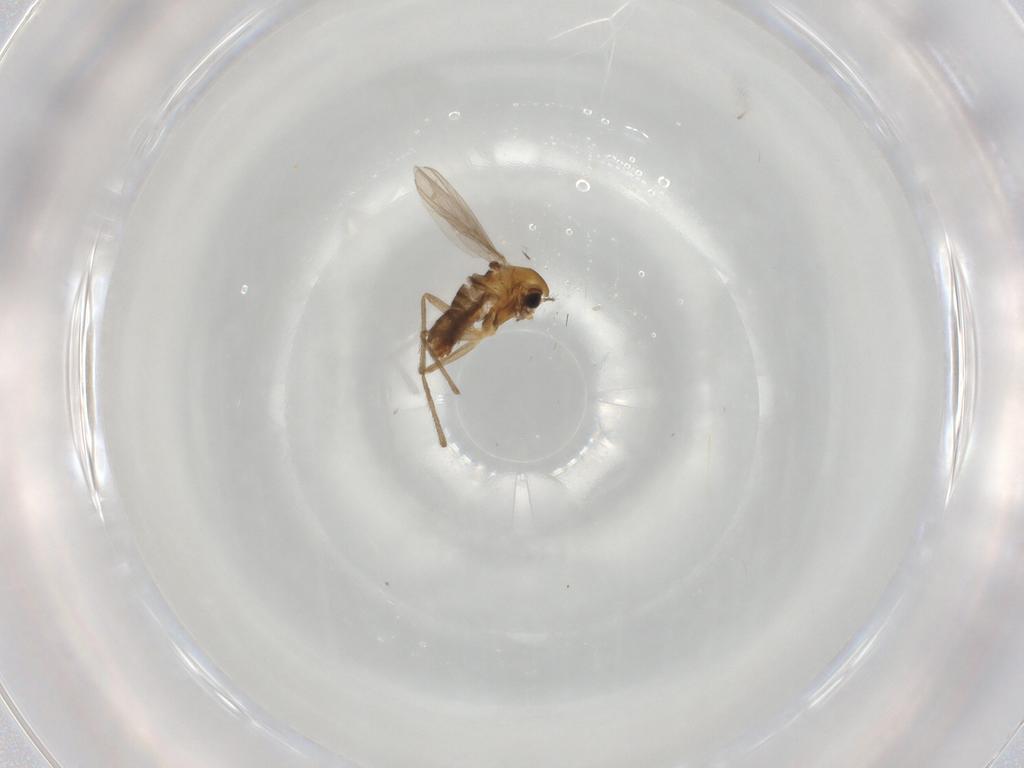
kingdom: Animalia
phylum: Arthropoda
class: Insecta
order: Diptera
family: Chironomidae
